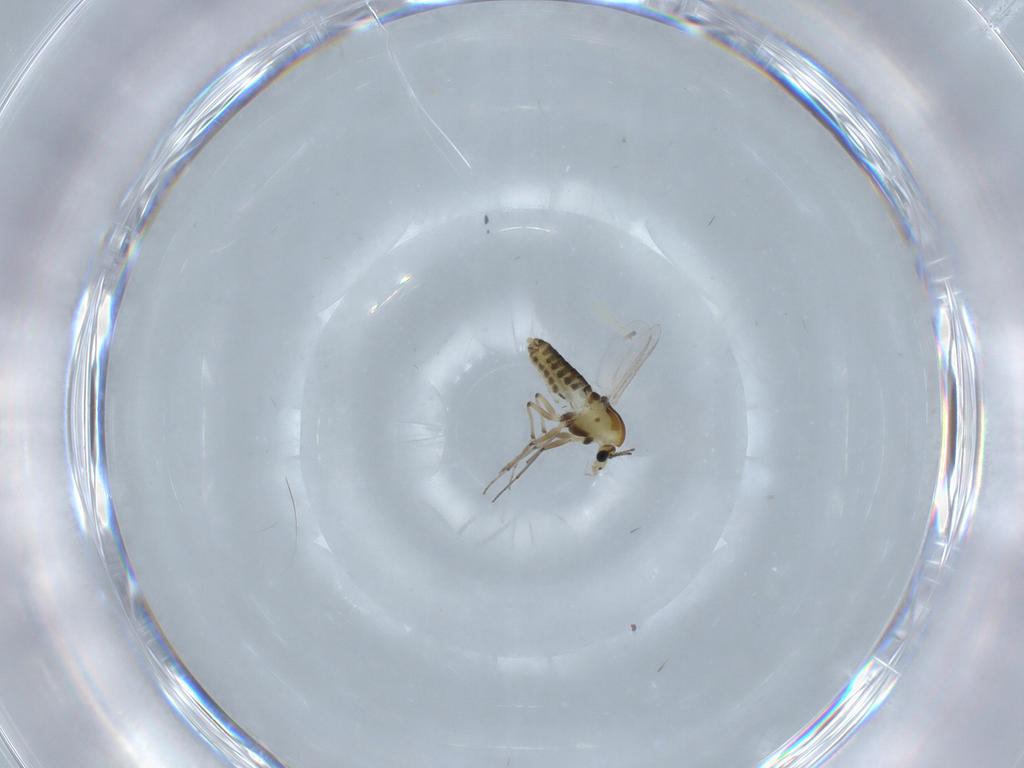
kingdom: Animalia
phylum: Arthropoda
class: Insecta
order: Diptera
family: Chironomidae
